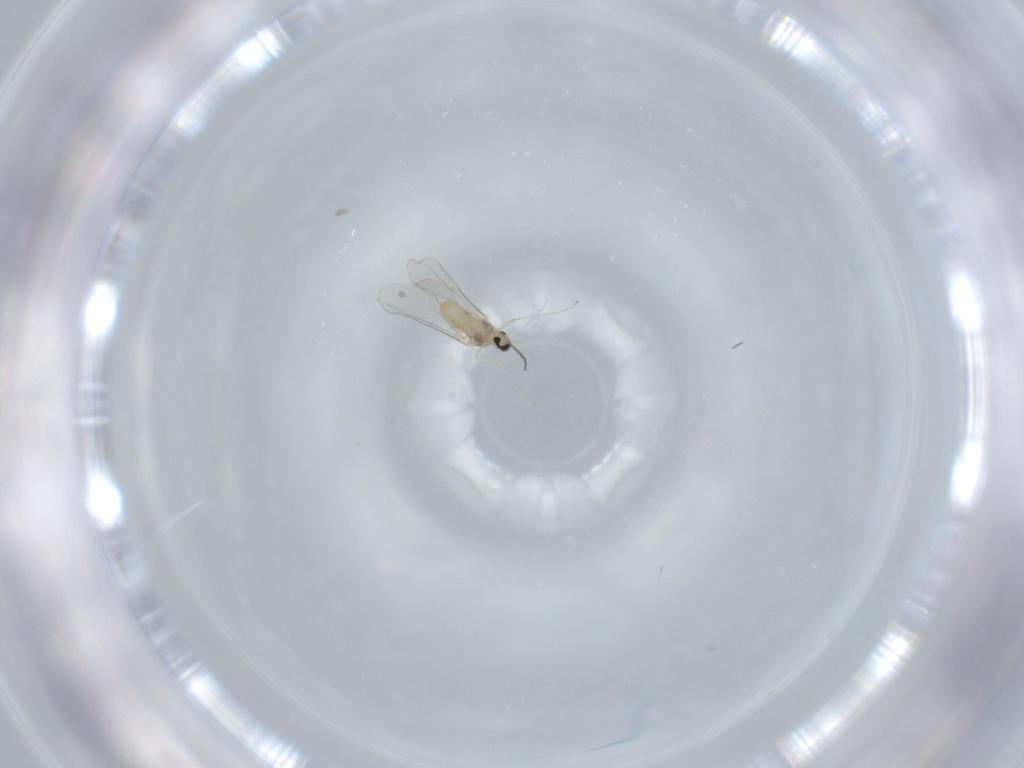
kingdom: Animalia
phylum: Arthropoda
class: Insecta
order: Diptera
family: Cecidomyiidae
